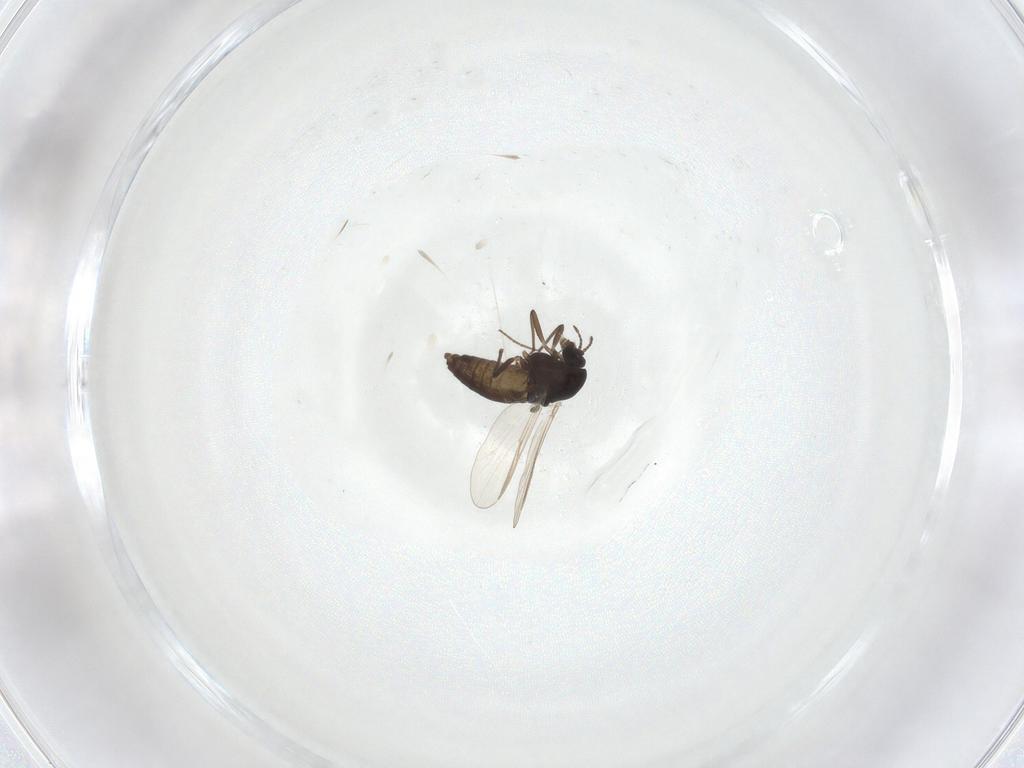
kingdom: Animalia
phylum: Arthropoda
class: Insecta
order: Diptera
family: Chironomidae
